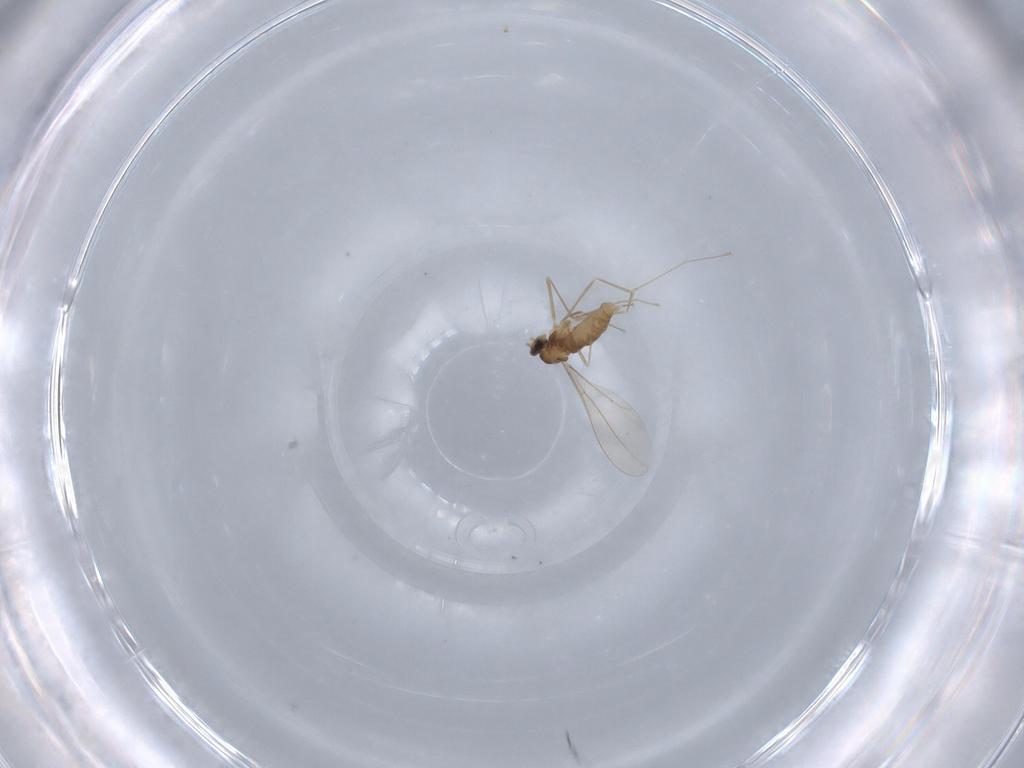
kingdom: Animalia
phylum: Arthropoda
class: Insecta
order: Diptera
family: Cecidomyiidae
